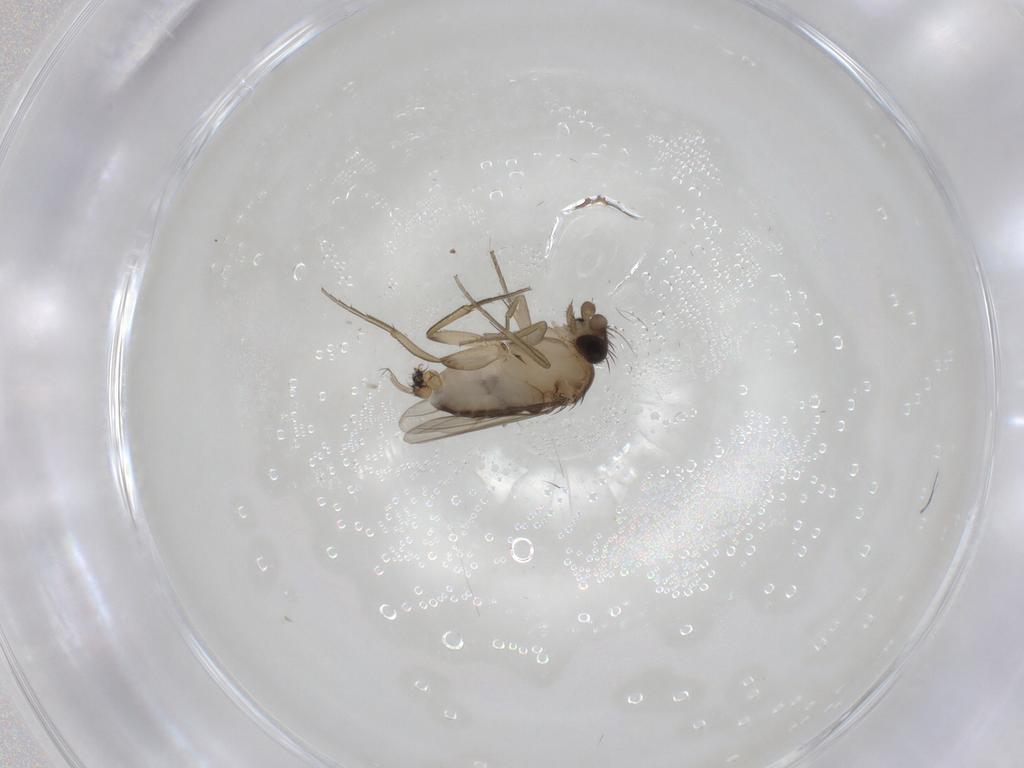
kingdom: Animalia
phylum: Arthropoda
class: Insecta
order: Diptera
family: Phoridae
